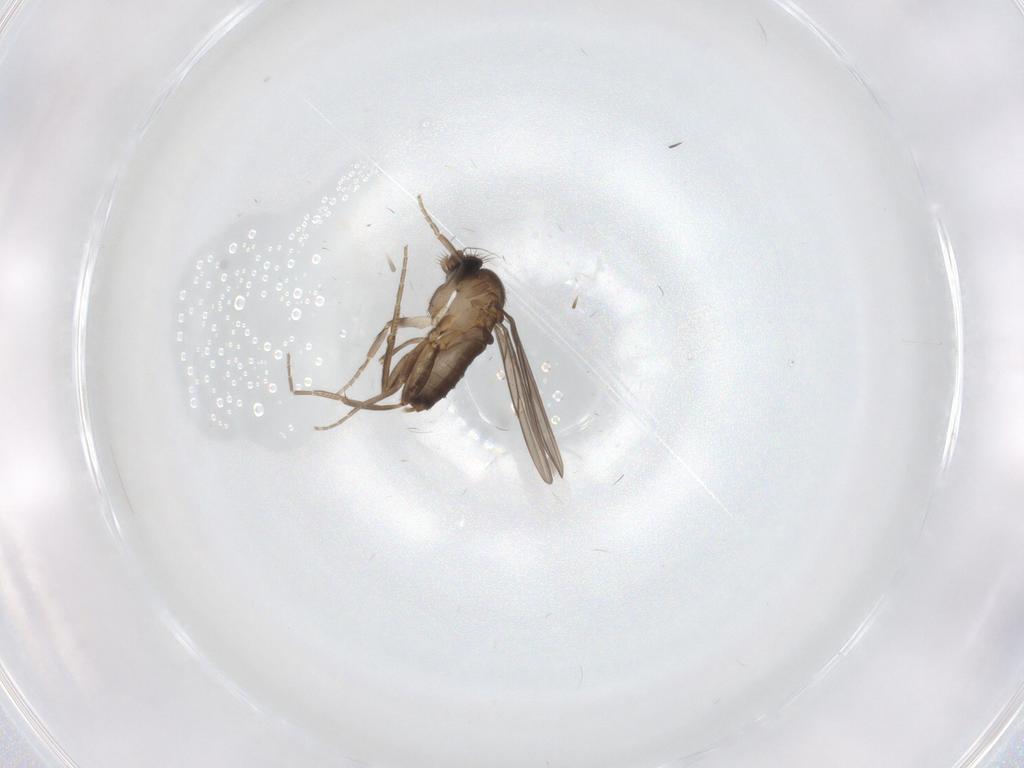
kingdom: Animalia
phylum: Arthropoda
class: Insecta
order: Diptera
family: Sciaridae
